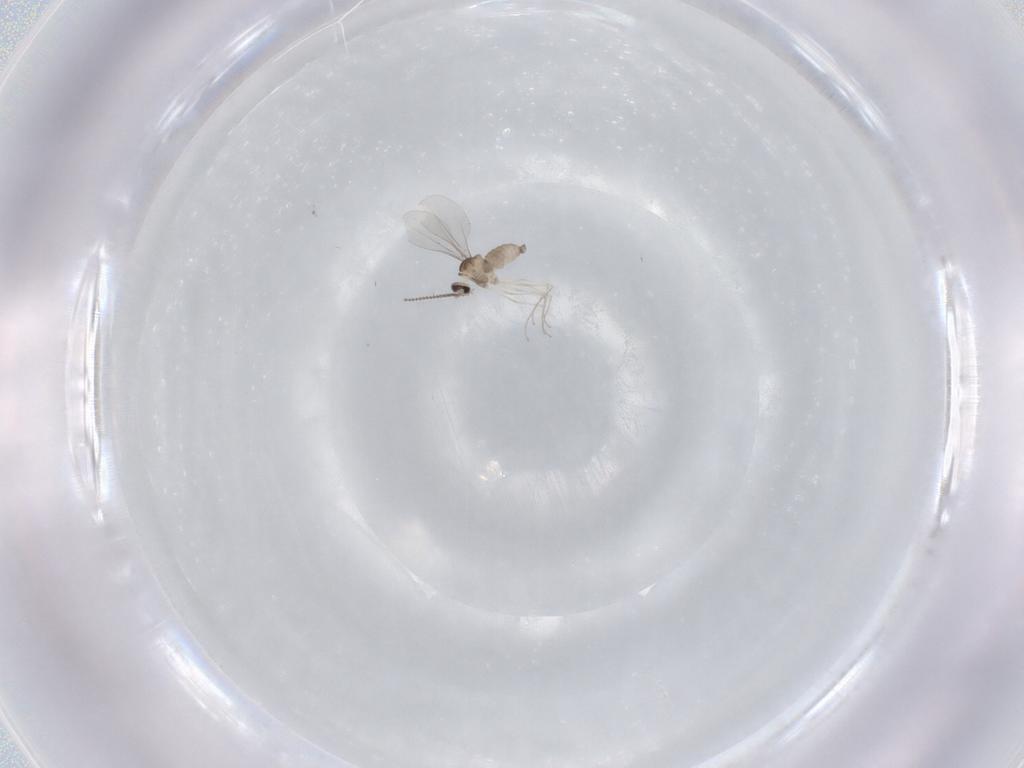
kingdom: Animalia
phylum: Arthropoda
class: Insecta
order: Diptera
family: Phoridae
